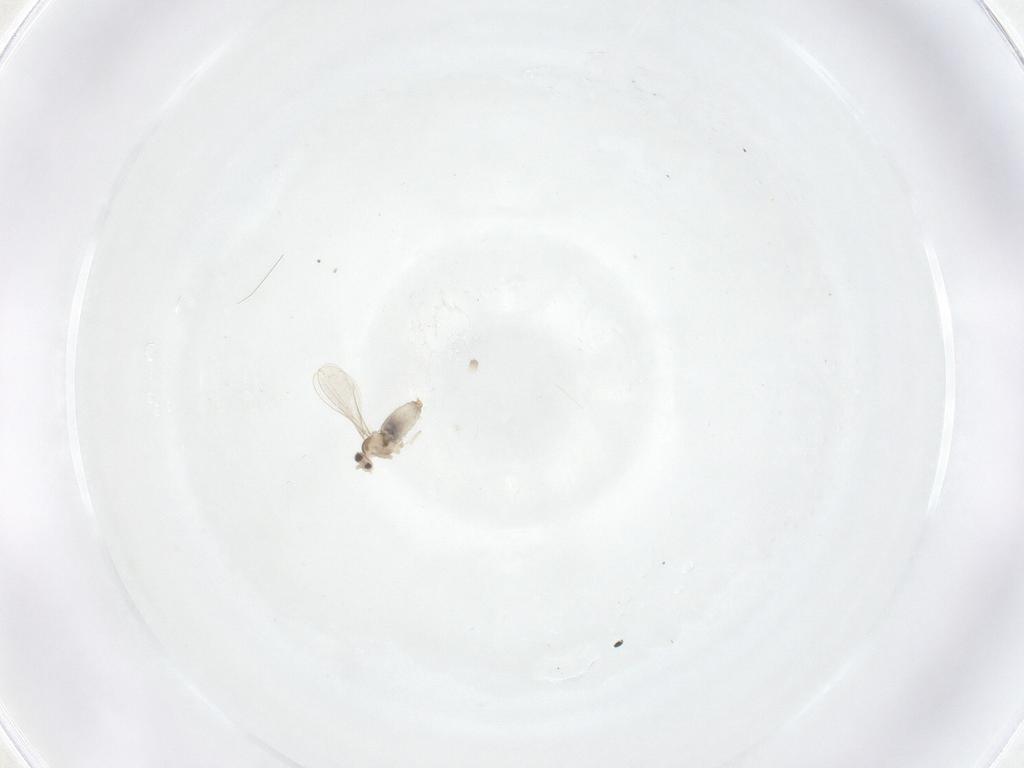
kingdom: Animalia
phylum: Arthropoda
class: Insecta
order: Diptera
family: Cecidomyiidae
